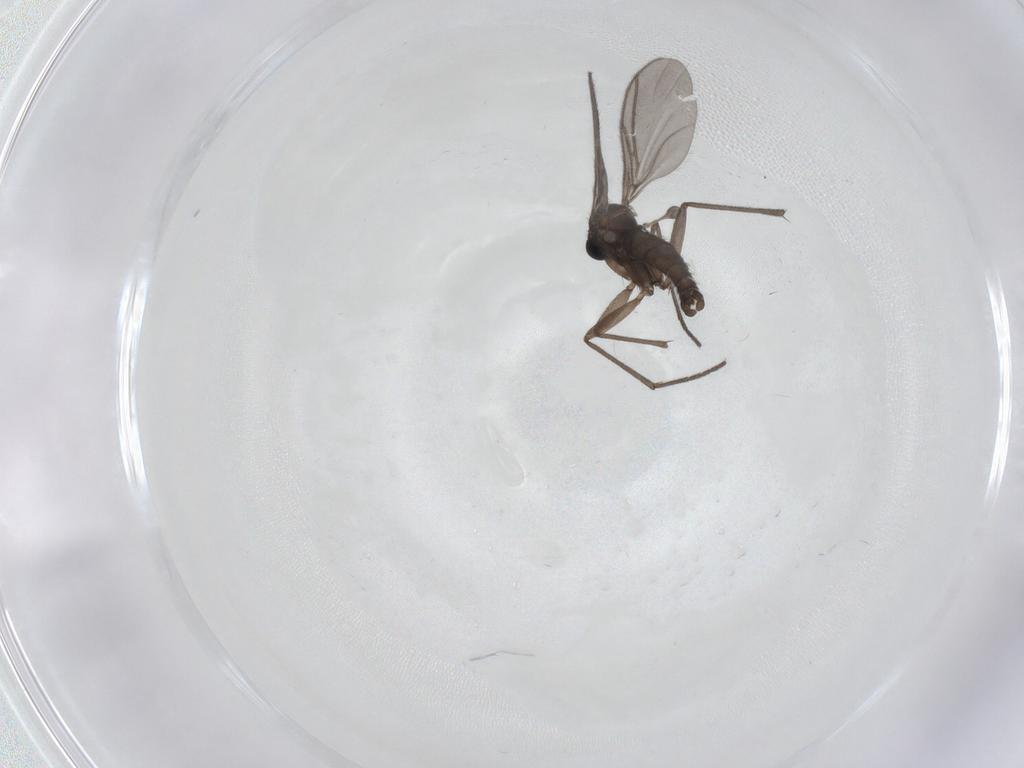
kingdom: Animalia
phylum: Arthropoda
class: Insecta
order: Diptera
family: Sciaridae
